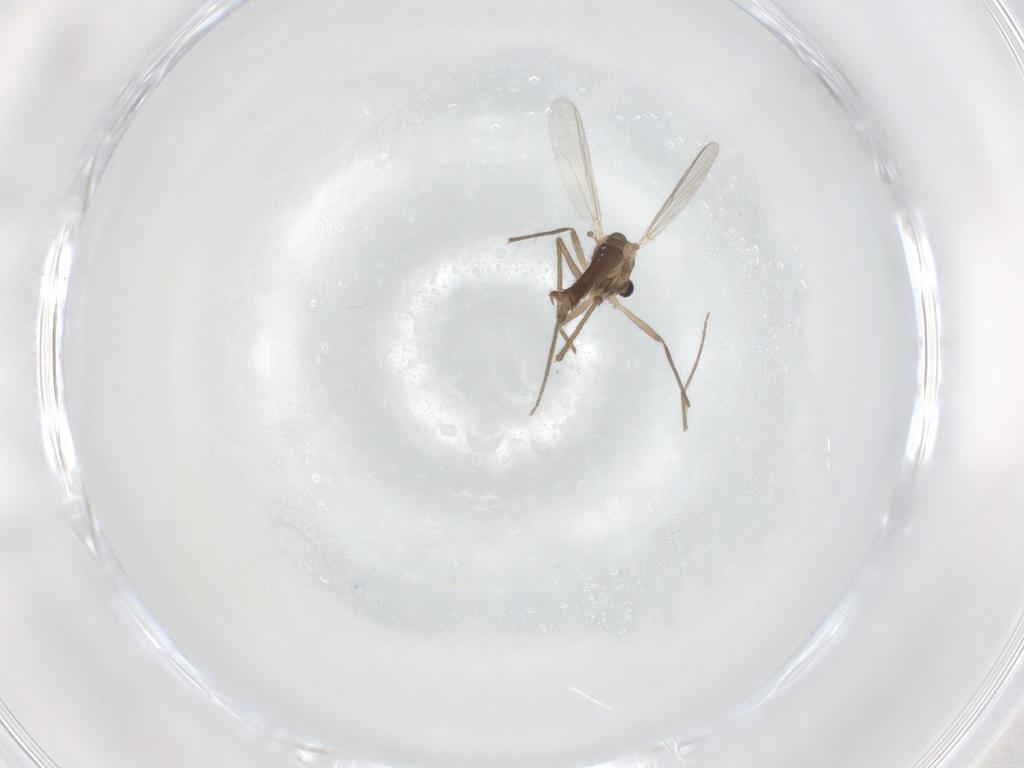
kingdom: Animalia
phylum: Arthropoda
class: Insecta
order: Diptera
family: Chironomidae
